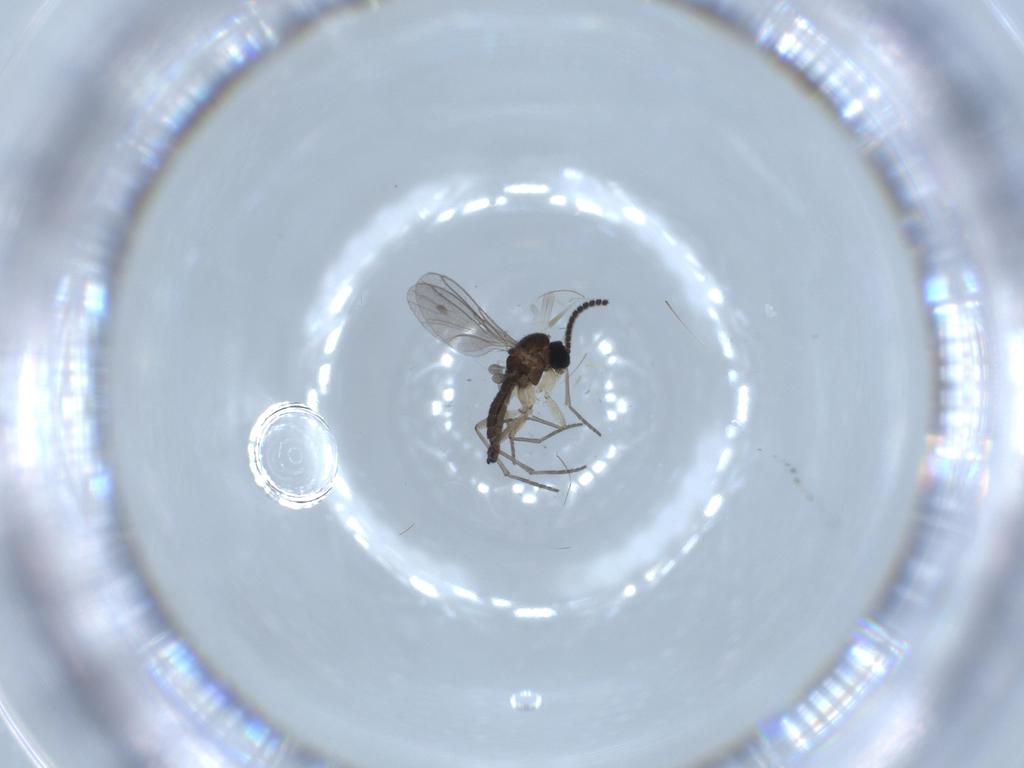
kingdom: Animalia
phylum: Arthropoda
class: Insecta
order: Diptera
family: Sciaridae
